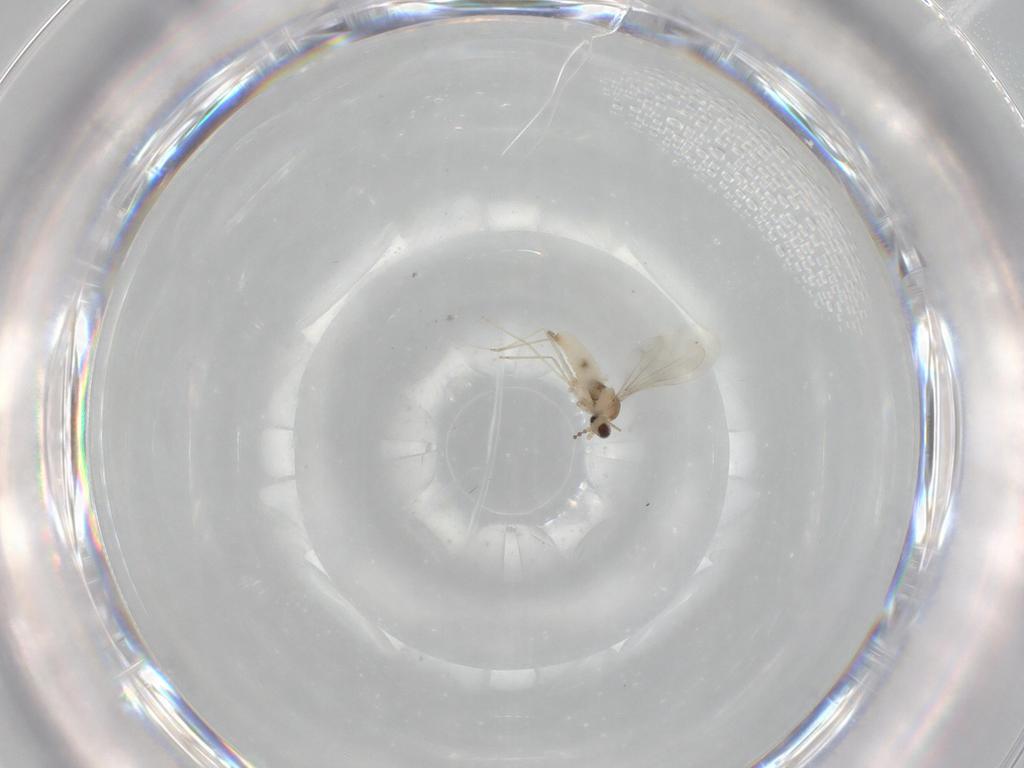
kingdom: Animalia
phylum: Arthropoda
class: Insecta
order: Diptera
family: Cecidomyiidae
